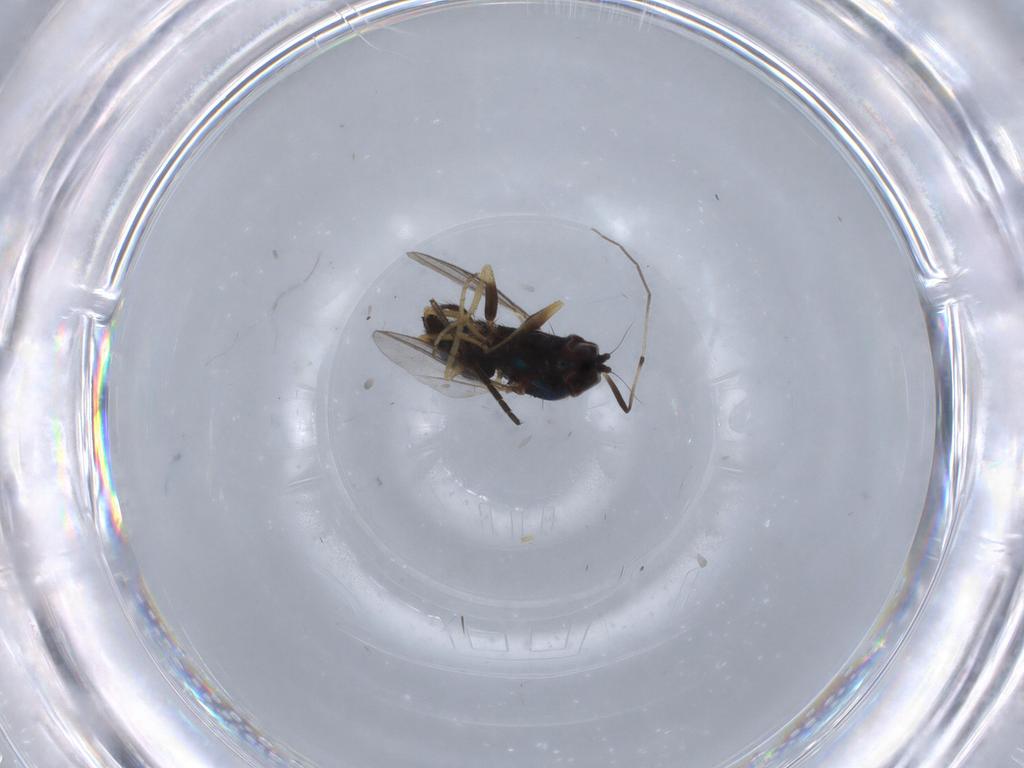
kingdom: Animalia
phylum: Arthropoda
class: Insecta
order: Diptera
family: Dolichopodidae
